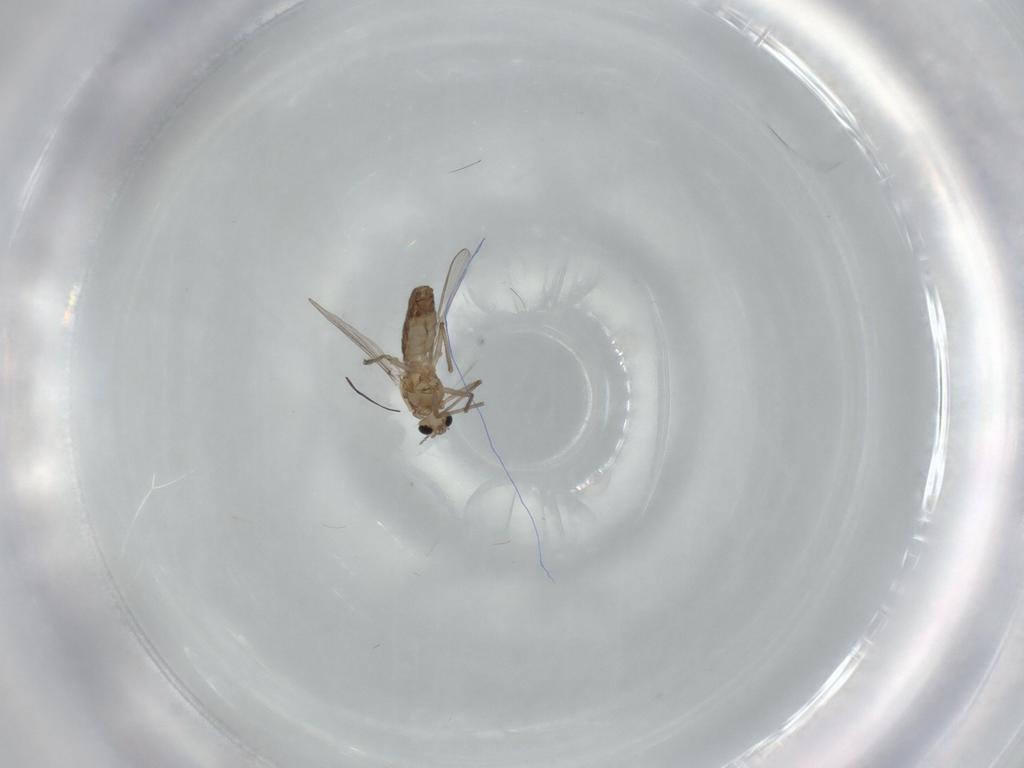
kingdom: Animalia
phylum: Arthropoda
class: Insecta
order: Diptera
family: Chironomidae
